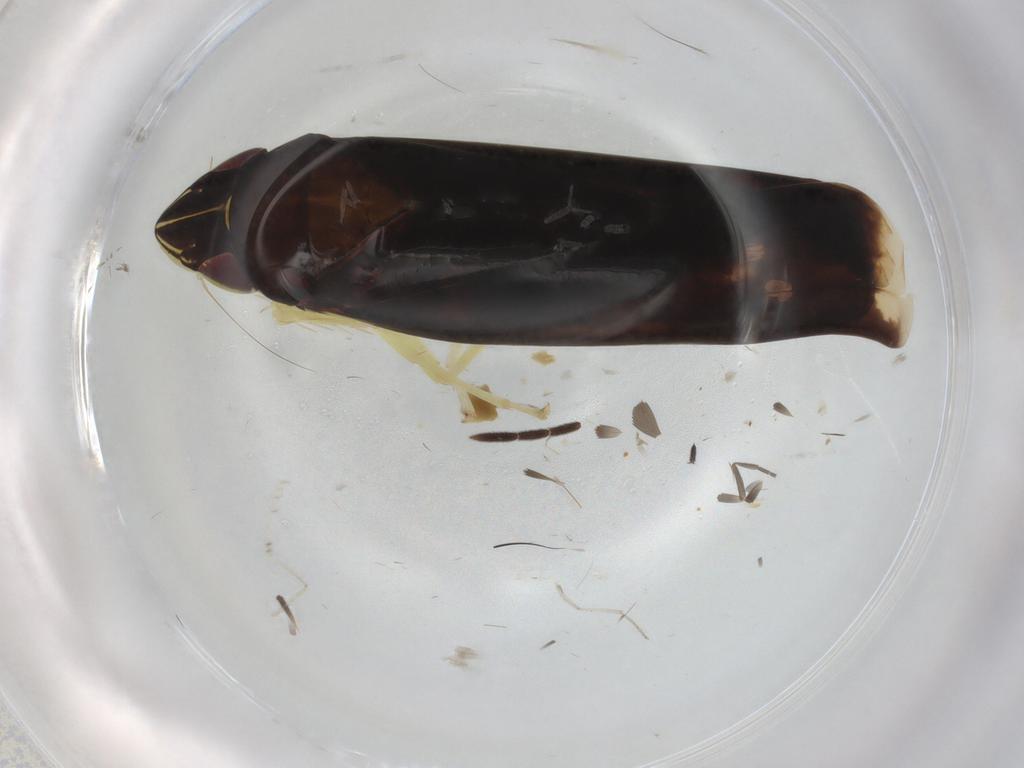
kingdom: Animalia
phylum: Arthropoda
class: Insecta
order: Hemiptera
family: Cicadellidae
